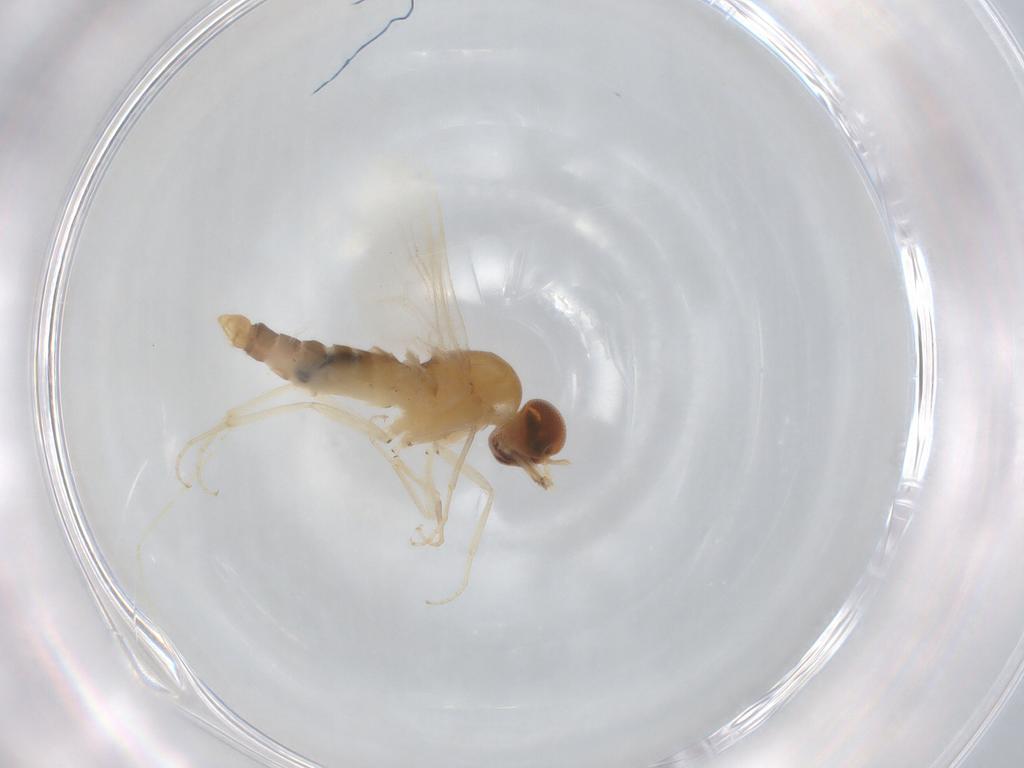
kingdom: Animalia
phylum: Arthropoda
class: Insecta
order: Diptera
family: Scenopinidae
